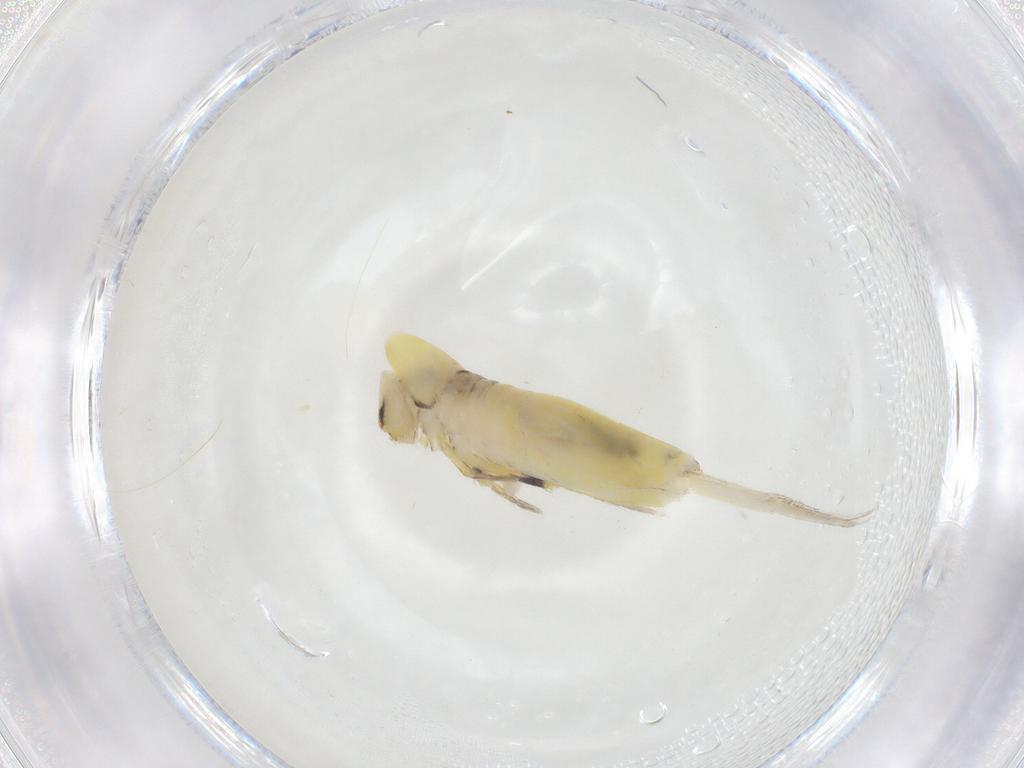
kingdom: Animalia
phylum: Arthropoda
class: Collembola
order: Entomobryomorpha
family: Entomobryidae
